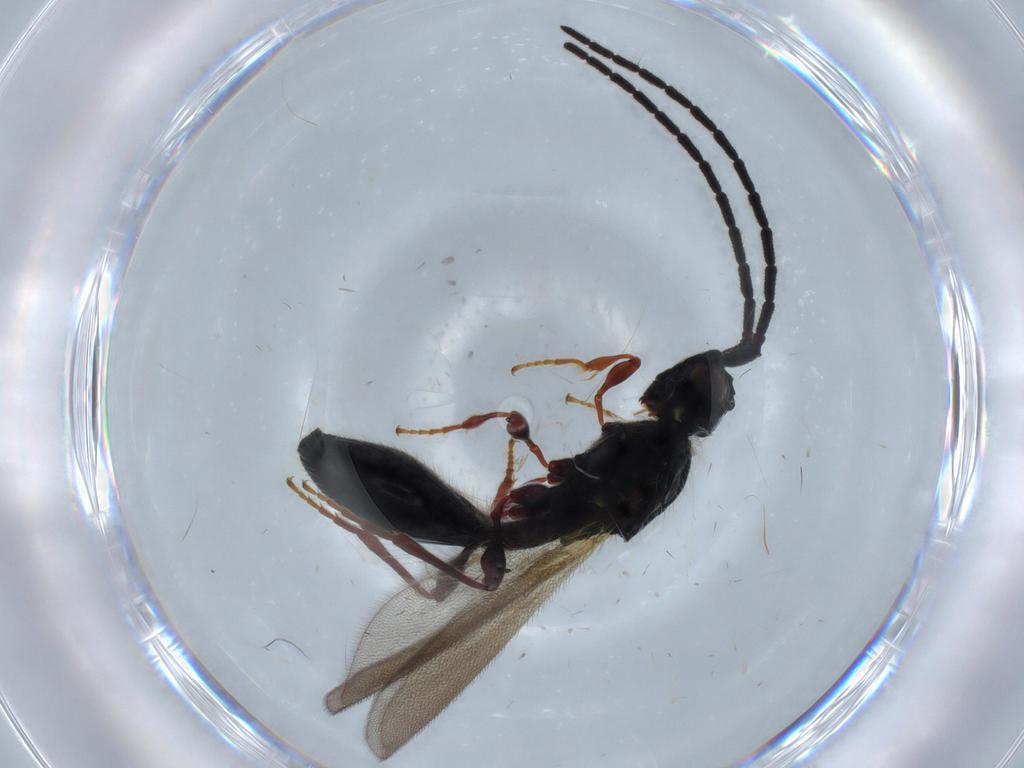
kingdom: Animalia
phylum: Arthropoda
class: Insecta
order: Hymenoptera
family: Diapriidae
